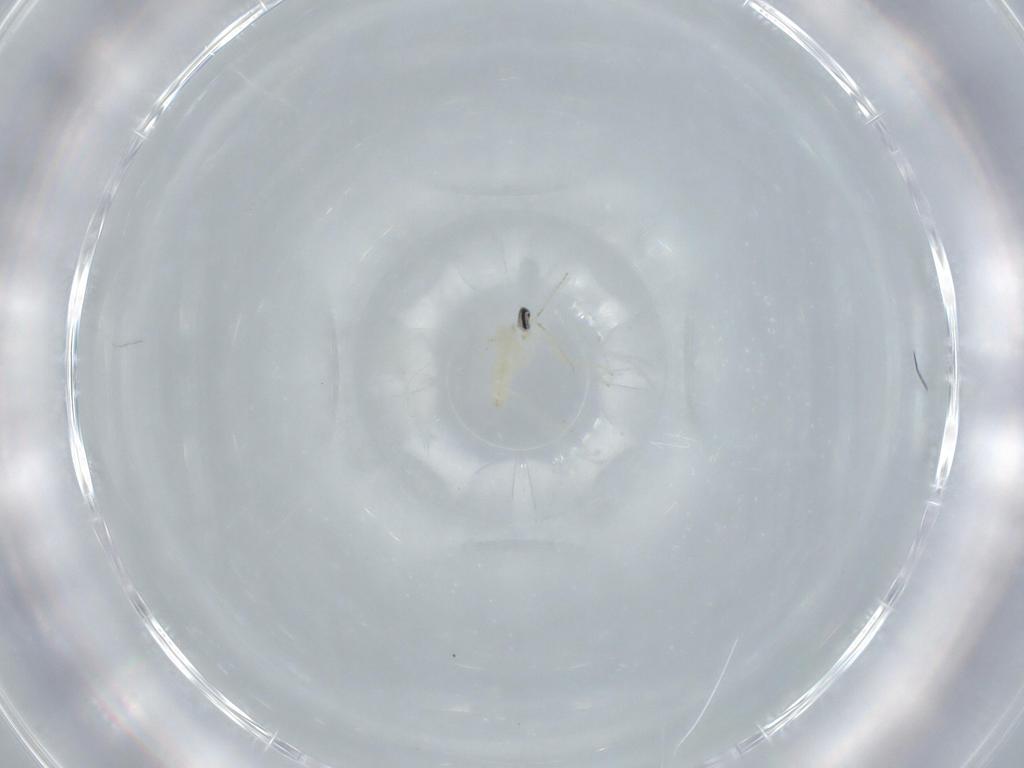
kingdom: Animalia
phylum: Arthropoda
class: Insecta
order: Diptera
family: Cecidomyiidae
